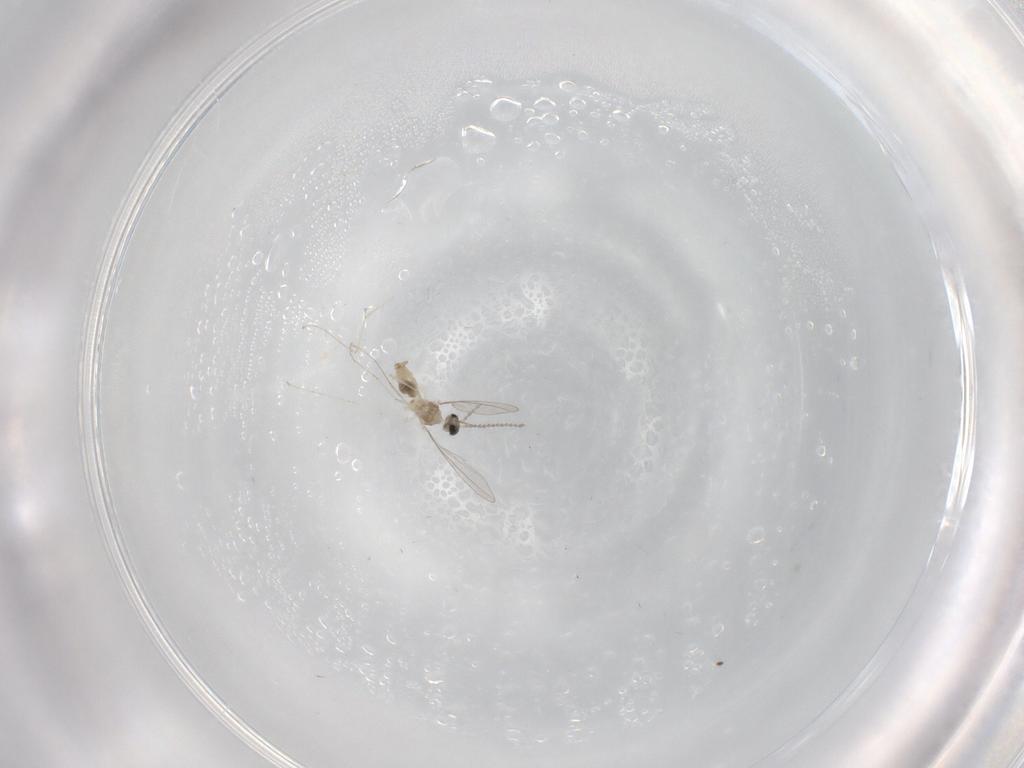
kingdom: Animalia
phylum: Arthropoda
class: Insecta
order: Diptera
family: Cecidomyiidae
